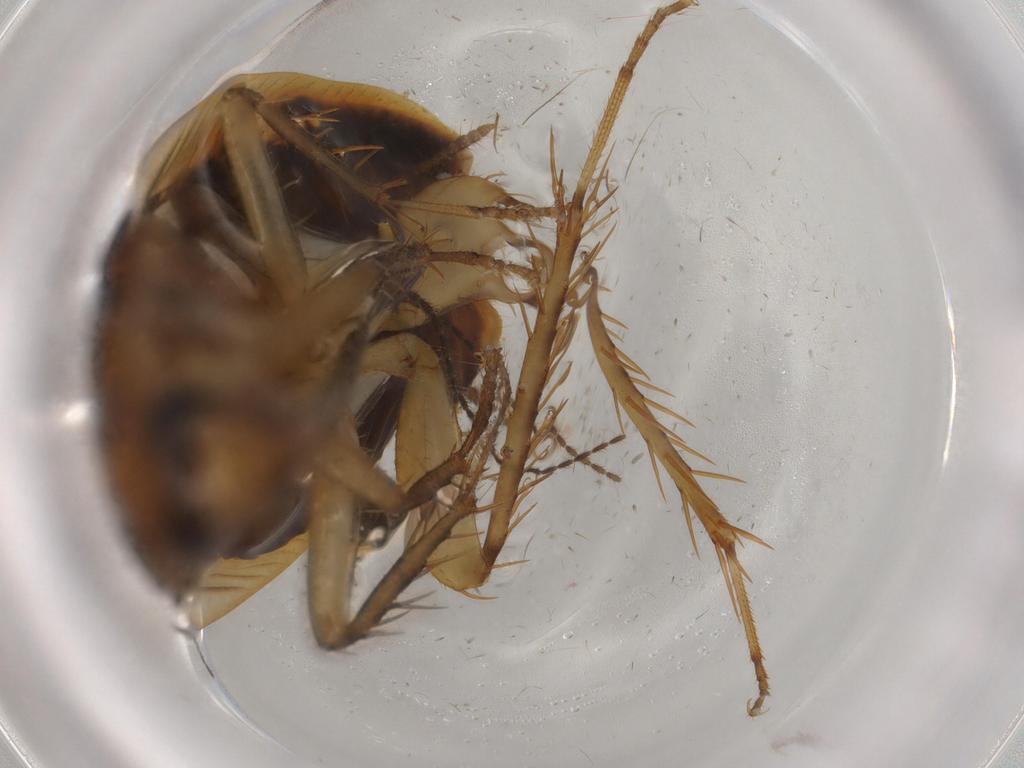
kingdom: Animalia
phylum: Arthropoda
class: Insecta
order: Blattodea
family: Ectobiidae
